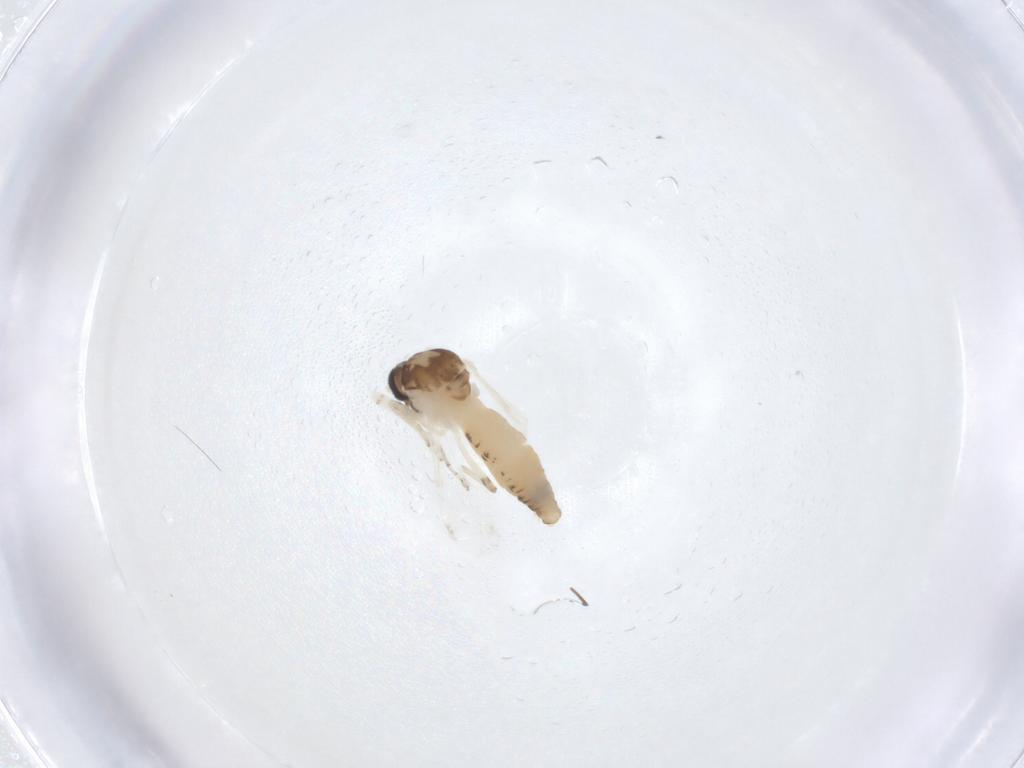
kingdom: Animalia
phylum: Arthropoda
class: Insecta
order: Diptera
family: Ceratopogonidae
